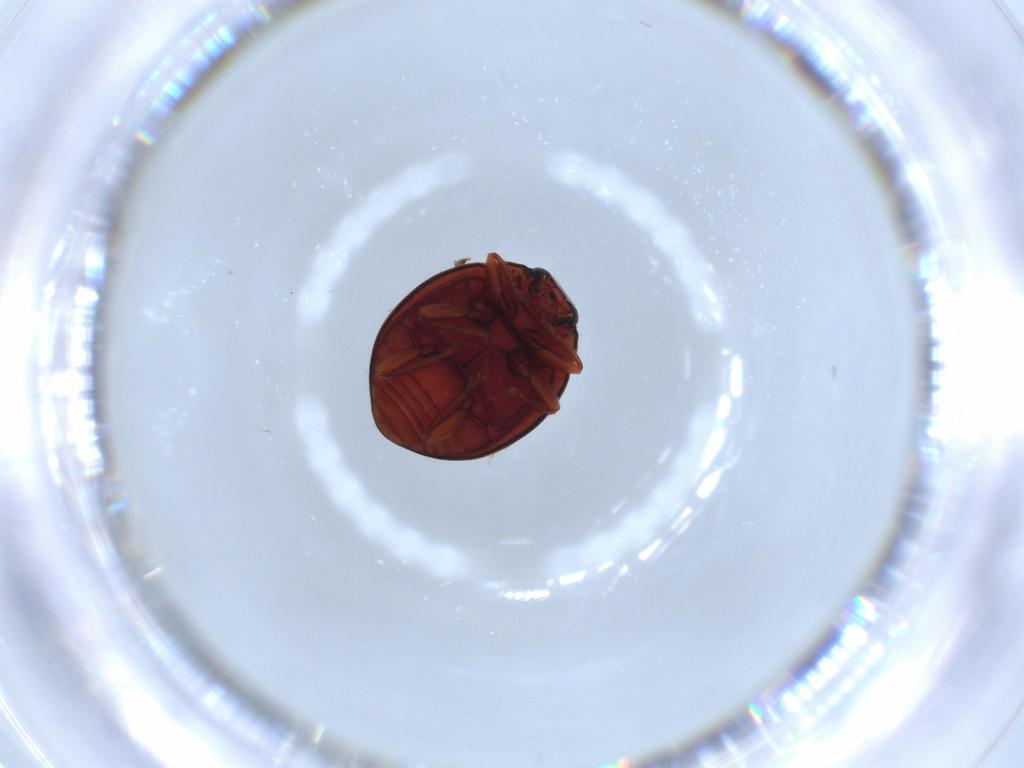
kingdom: Animalia
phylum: Arthropoda
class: Insecta
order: Coleoptera
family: Coccinellidae
